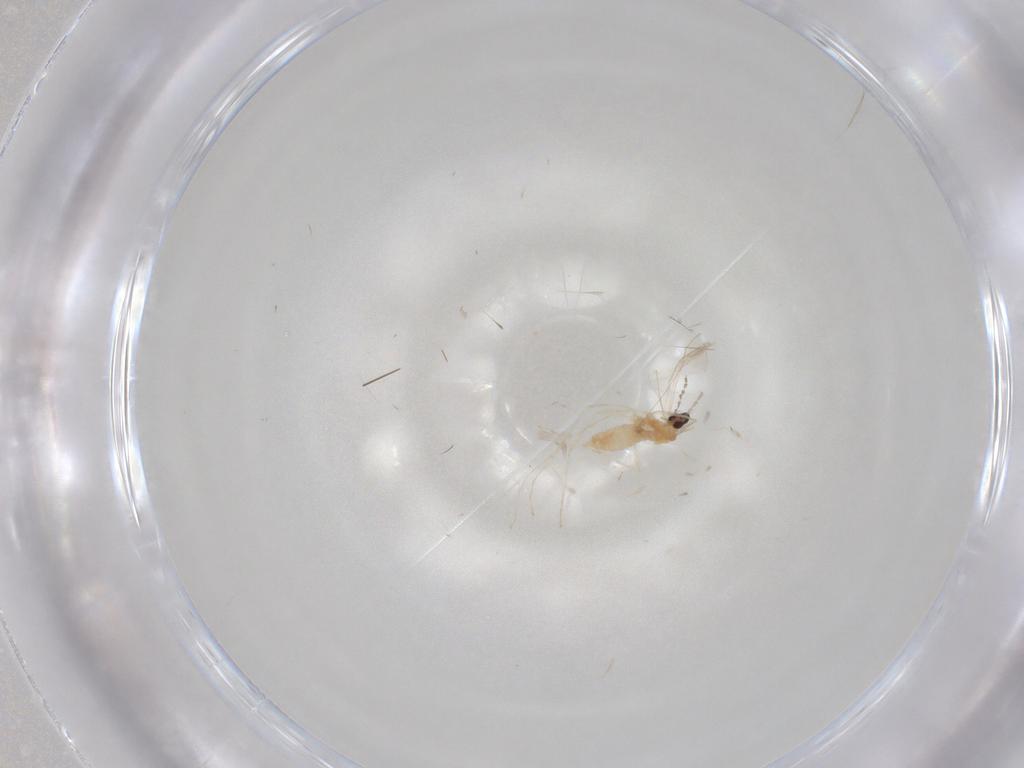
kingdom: Animalia
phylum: Arthropoda
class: Insecta
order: Diptera
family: Cecidomyiidae
